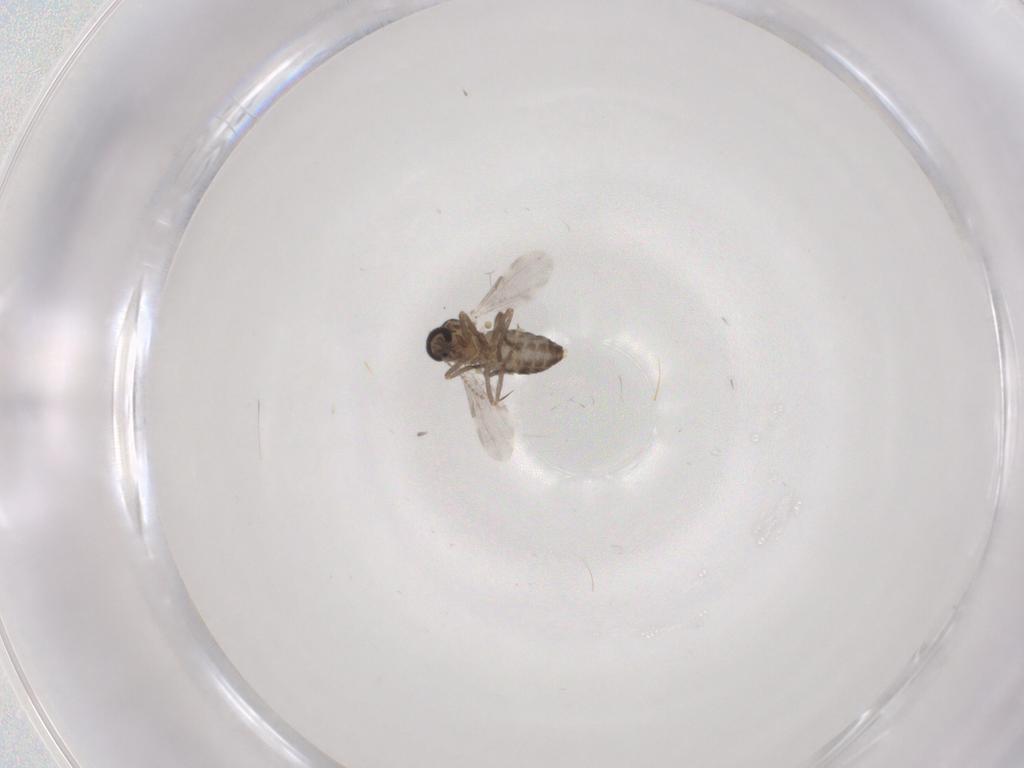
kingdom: Animalia
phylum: Arthropoda
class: Insecta
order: Diptera
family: Ceratopogonidae
